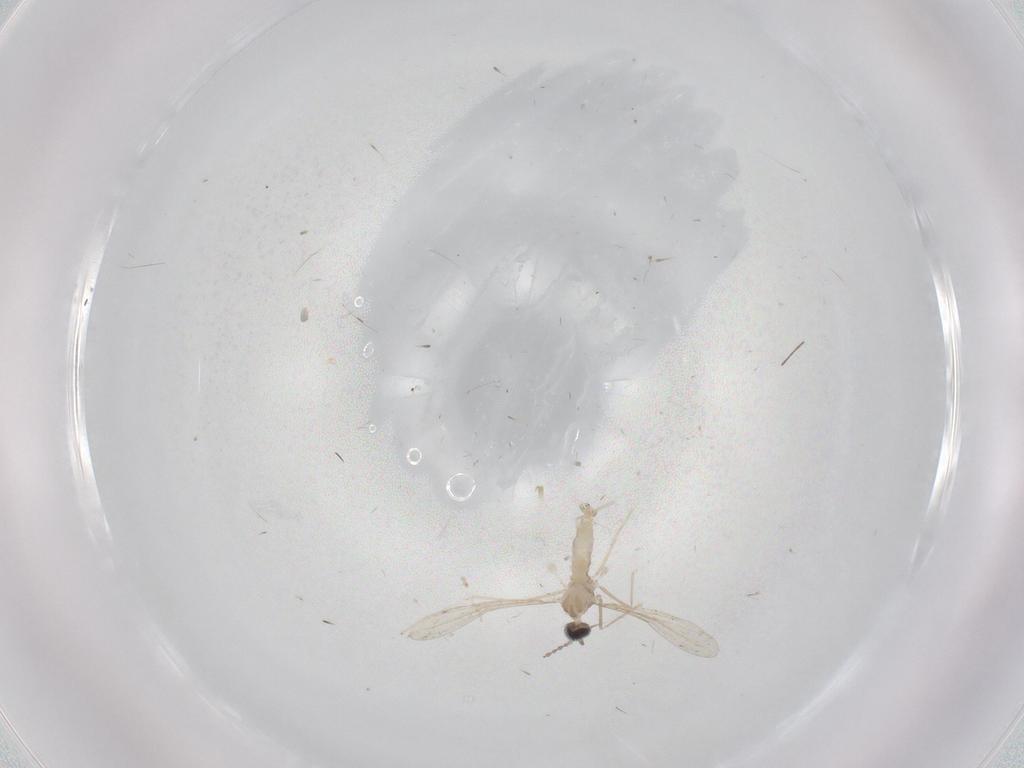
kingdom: Animalia
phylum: Arthropoda
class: Insecta
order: Diptera
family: Cecidomyiidae
